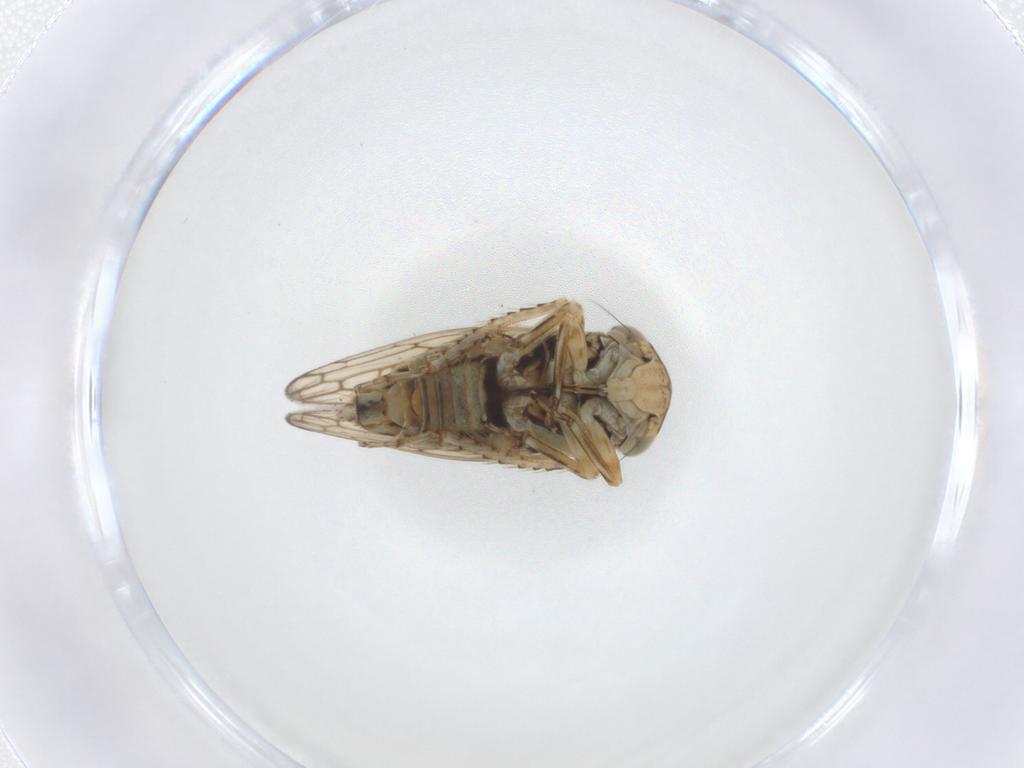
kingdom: Animalia
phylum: Arthropoda
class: Insecta
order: Hemiptera
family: Cicadellidae
